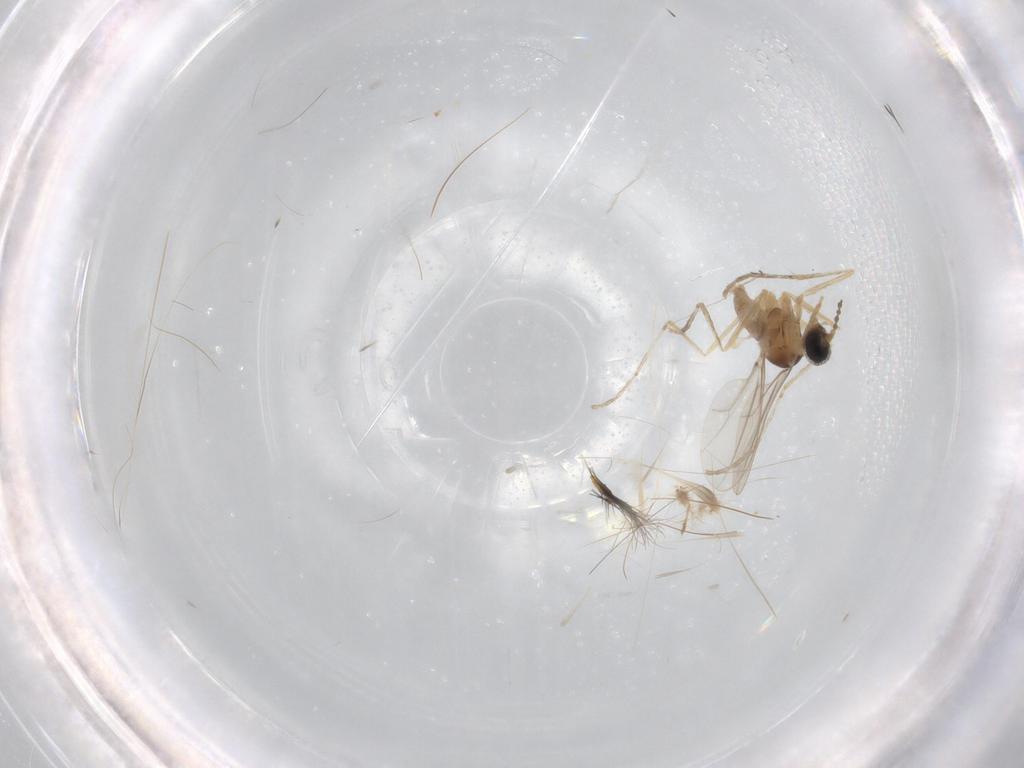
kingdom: Animalia
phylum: Arthropoda
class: Insecta
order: Diptera
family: Cecidomyiidae
